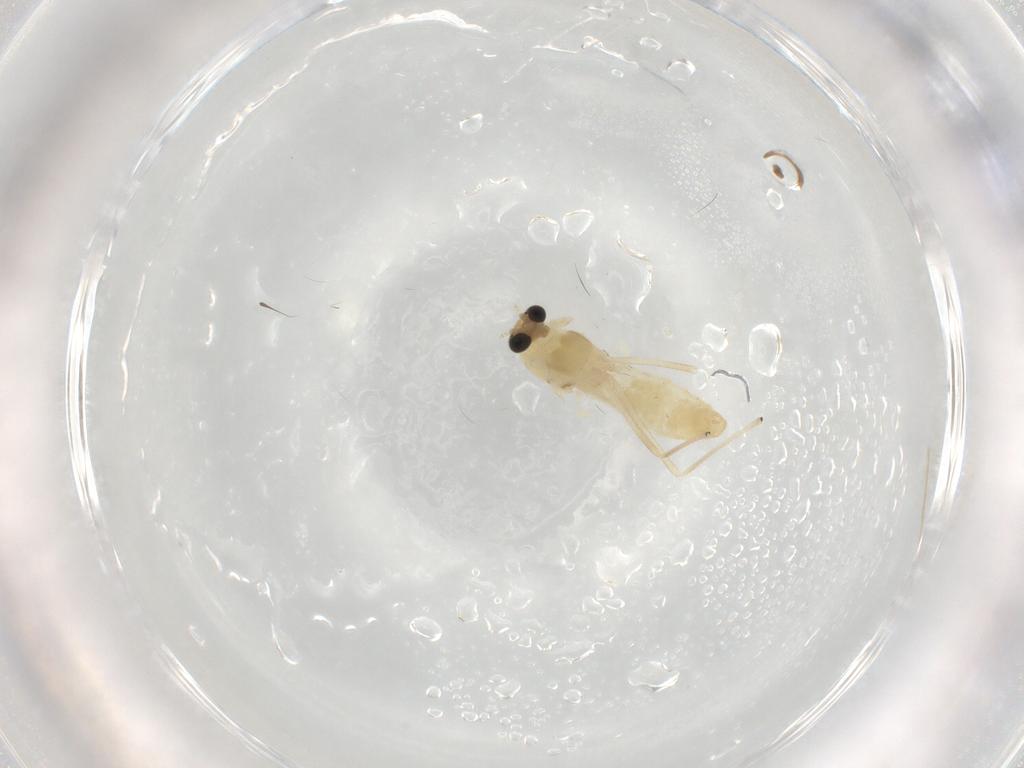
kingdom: Animalia
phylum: Arthropoda
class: Insecta
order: Diptera
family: Chironomidae
